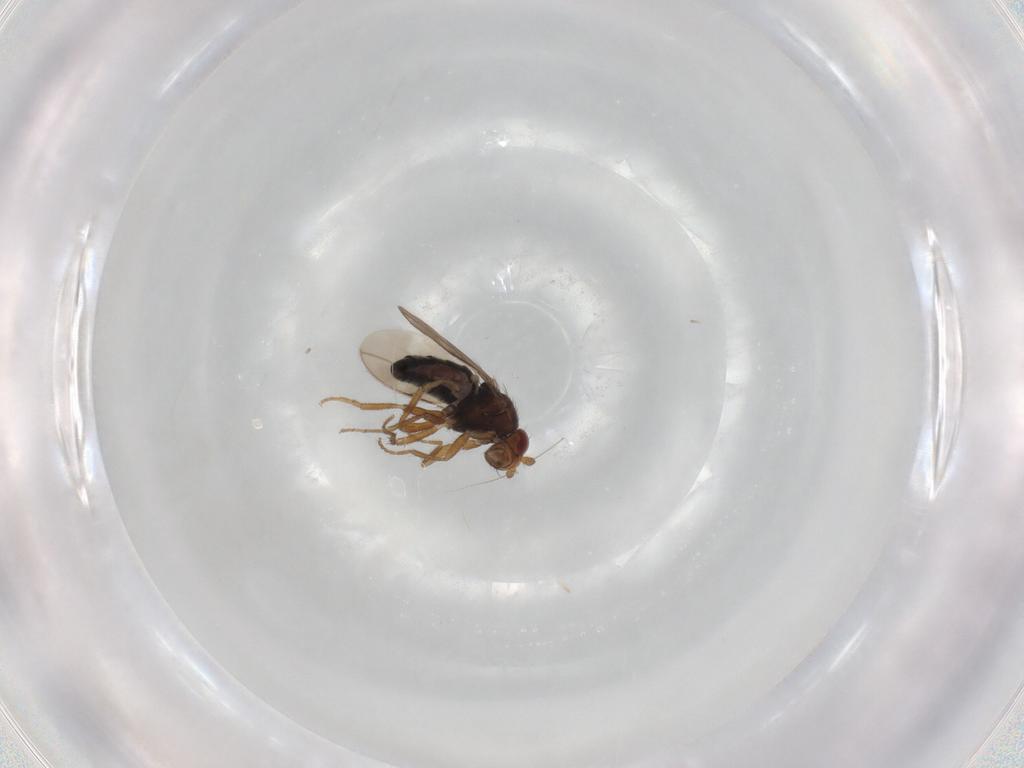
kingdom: Animalia
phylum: Arthropoda
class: Insecta
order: Diptera
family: Sphaeroceridae
